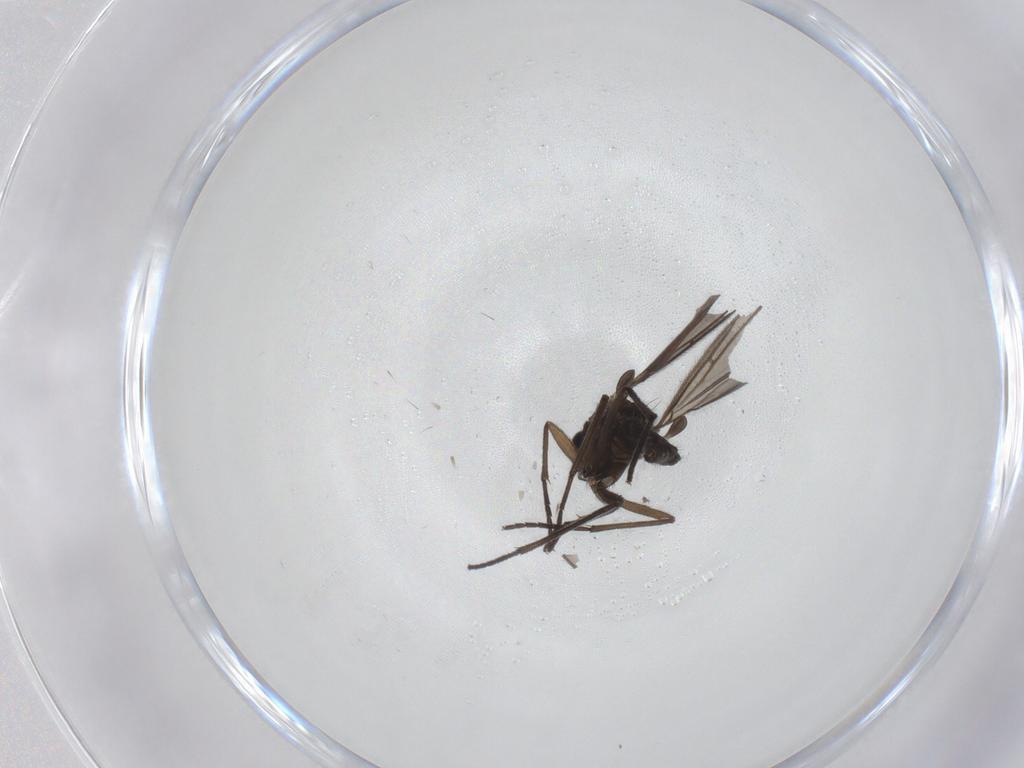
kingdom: Animalia
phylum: Arthropoda
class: Insecta
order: Diptera
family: Sciaridae
